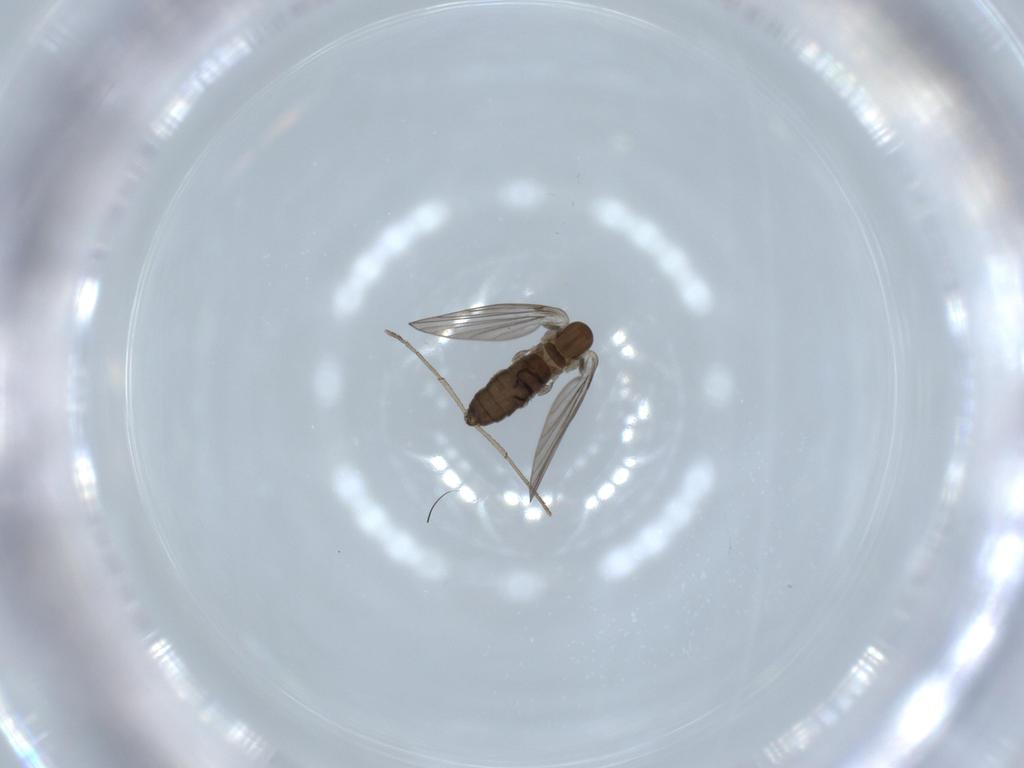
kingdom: Animalia
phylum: Arthropoda
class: Insecta
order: Diptera
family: Psychodidae
